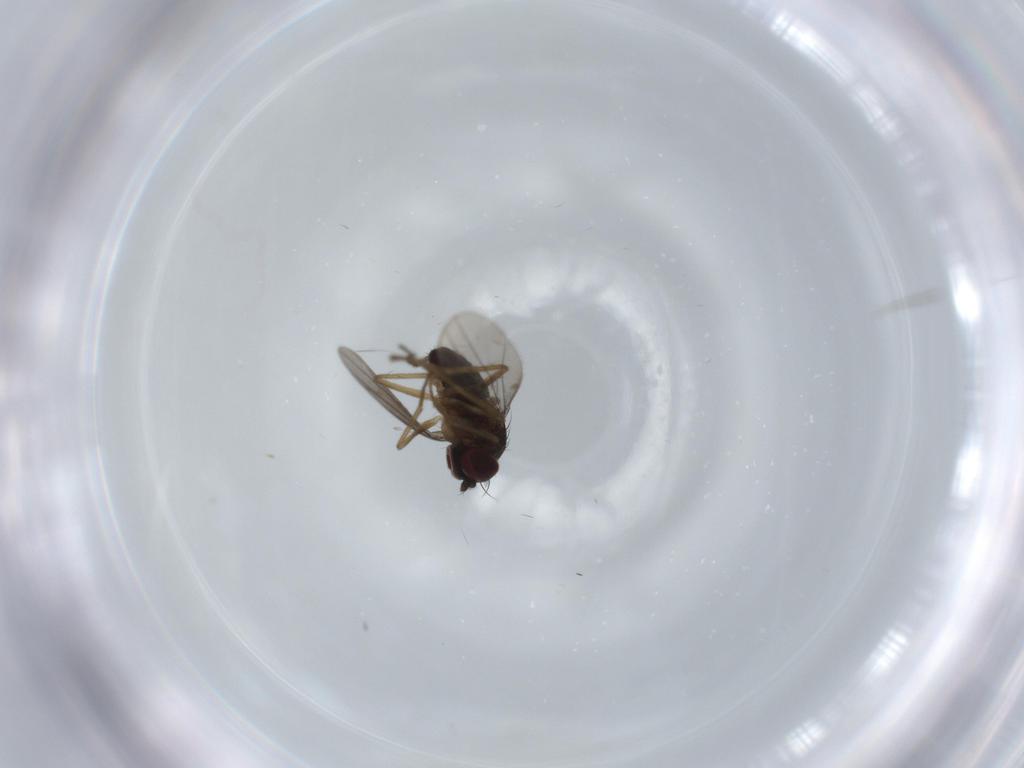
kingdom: Animalia
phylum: Arthropoda
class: Insecta
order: Diptera
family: Dolichopodidae
